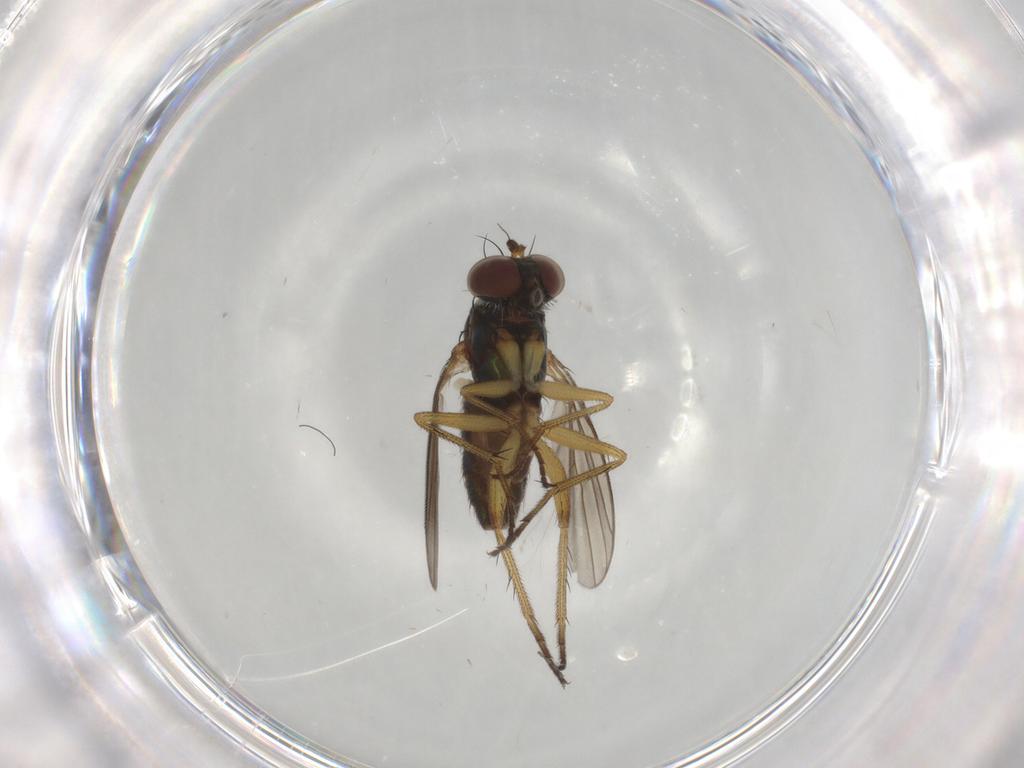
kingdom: Animalia
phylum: Arthropoda
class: Insecta
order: Diptera
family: Cecidomyiidae
